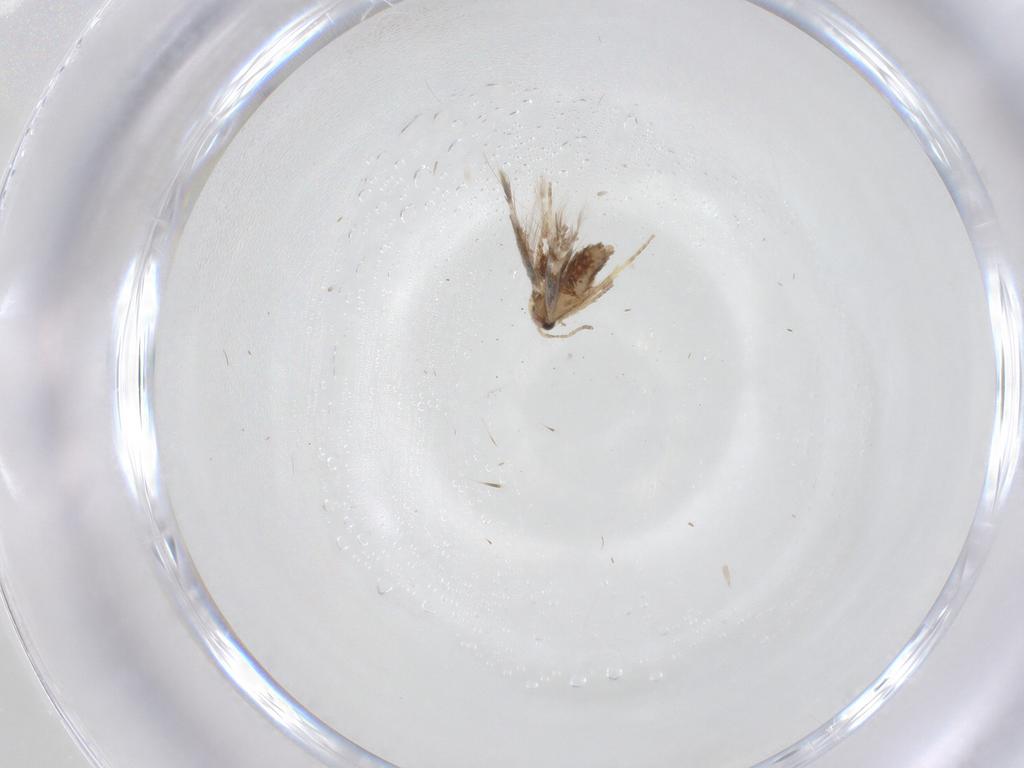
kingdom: Animalia
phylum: Arthropoda
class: Insecta
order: Lepidoptera
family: Nepticulidae
